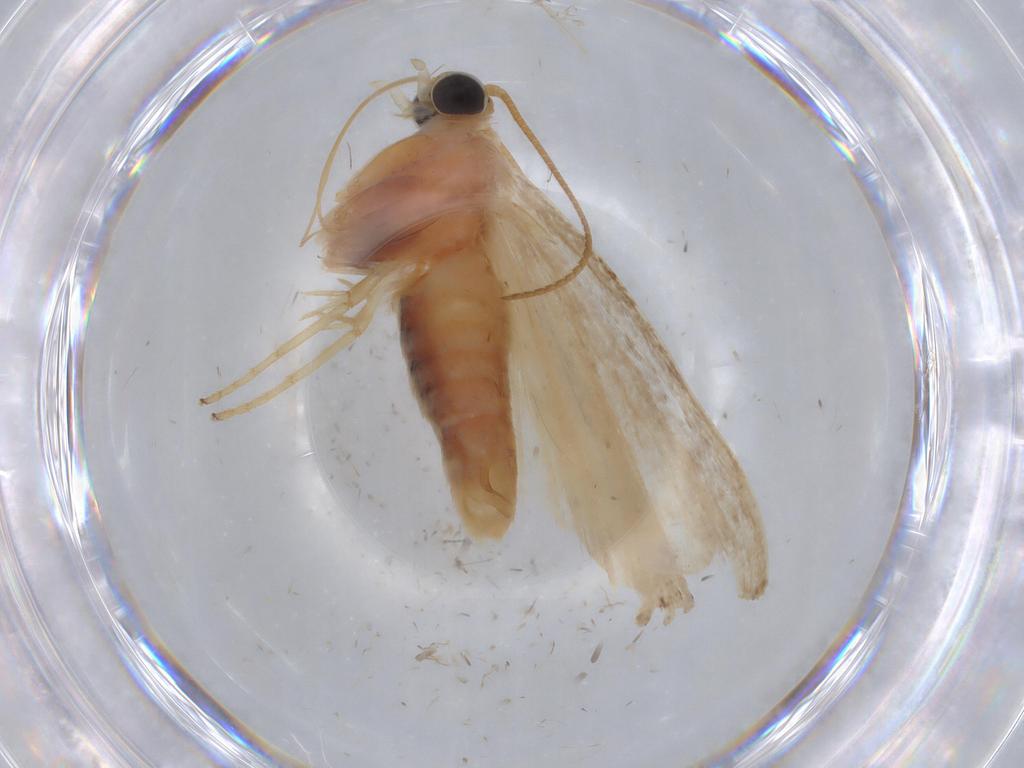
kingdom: Animalia
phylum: Arthropoda
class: Insecta
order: Lepidoptera
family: Pyralidae
